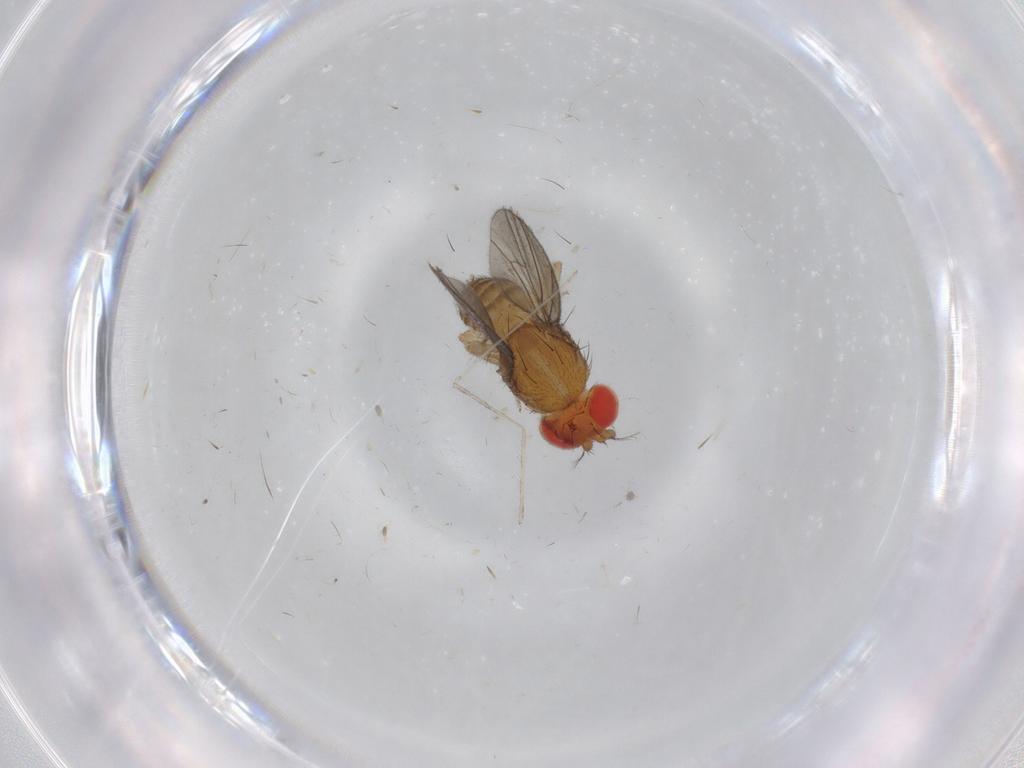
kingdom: Animalia
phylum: Arthropoda
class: Insecta
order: Diptera
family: Drosophilidae
